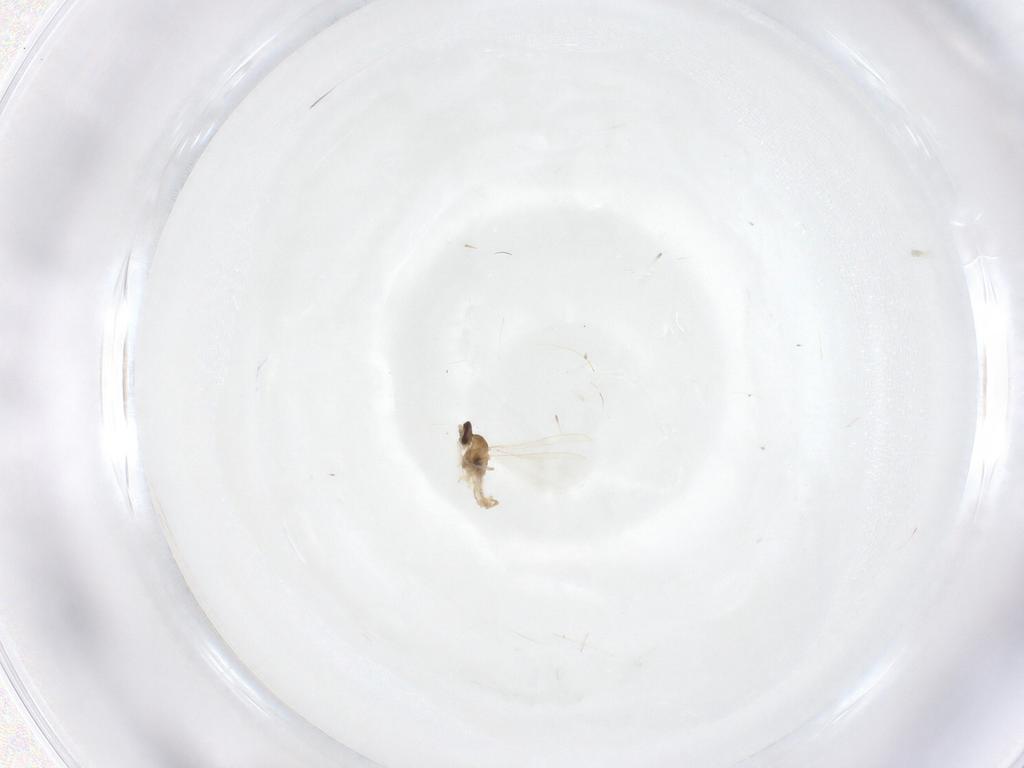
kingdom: Animalia
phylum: Arthropoda
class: Insecta
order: Diptera
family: Cecidomyiidae
